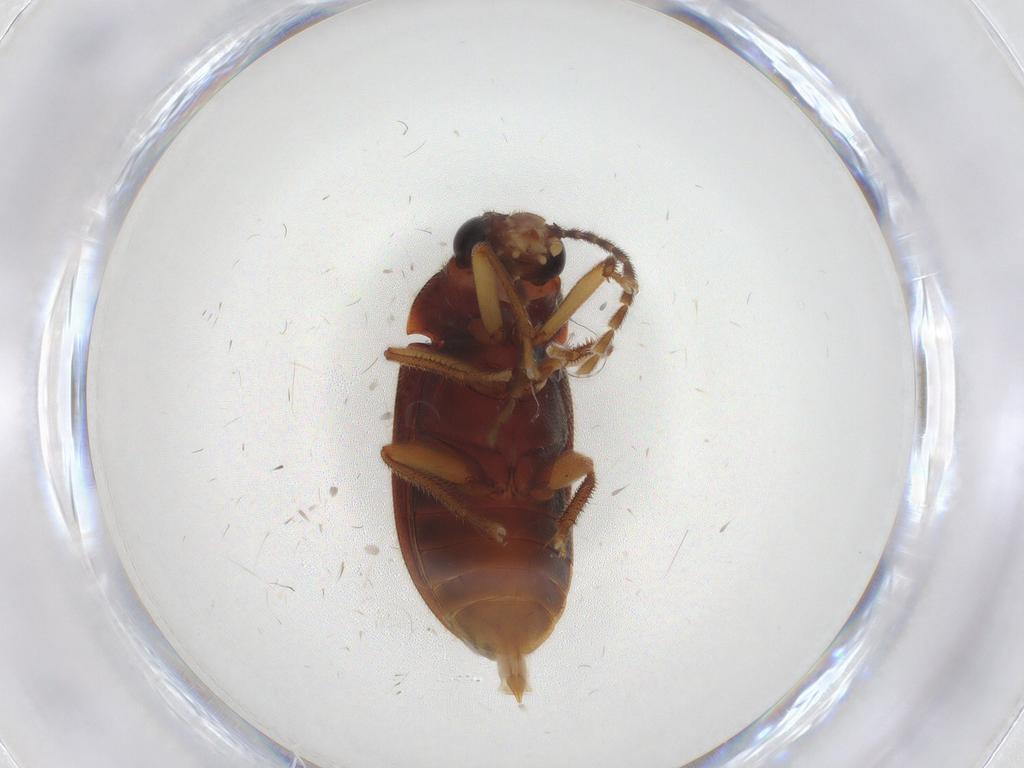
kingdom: Animalia
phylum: Arthropoda
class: Insecta
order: Coleoptera
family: Ptilodactylidae
